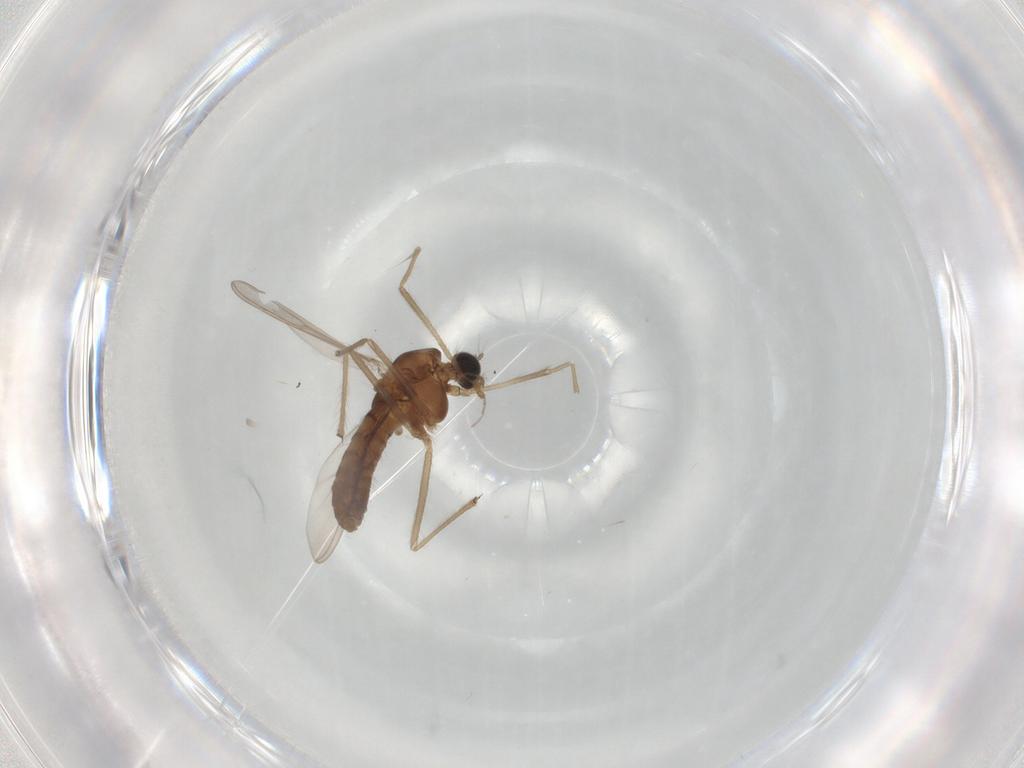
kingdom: Animalia
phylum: Arthropoda
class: Insecta
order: Diptera
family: Chironomidae
